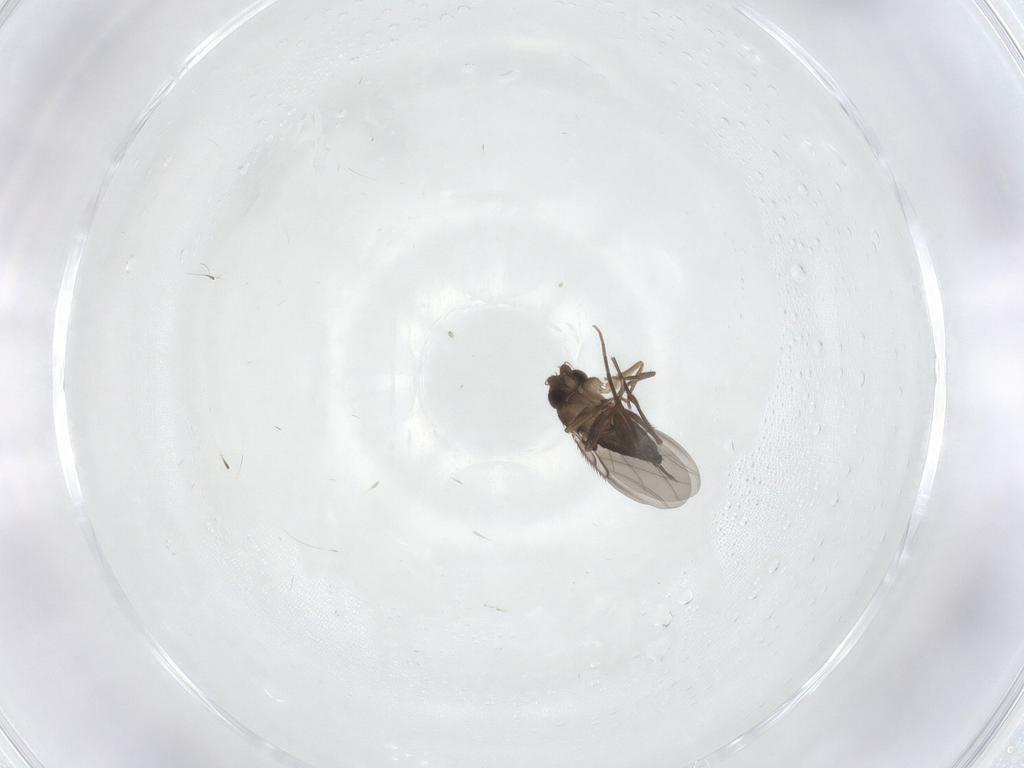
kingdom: Animalia
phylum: Arthropoda
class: Insecta
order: Diptera
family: Phoridae
